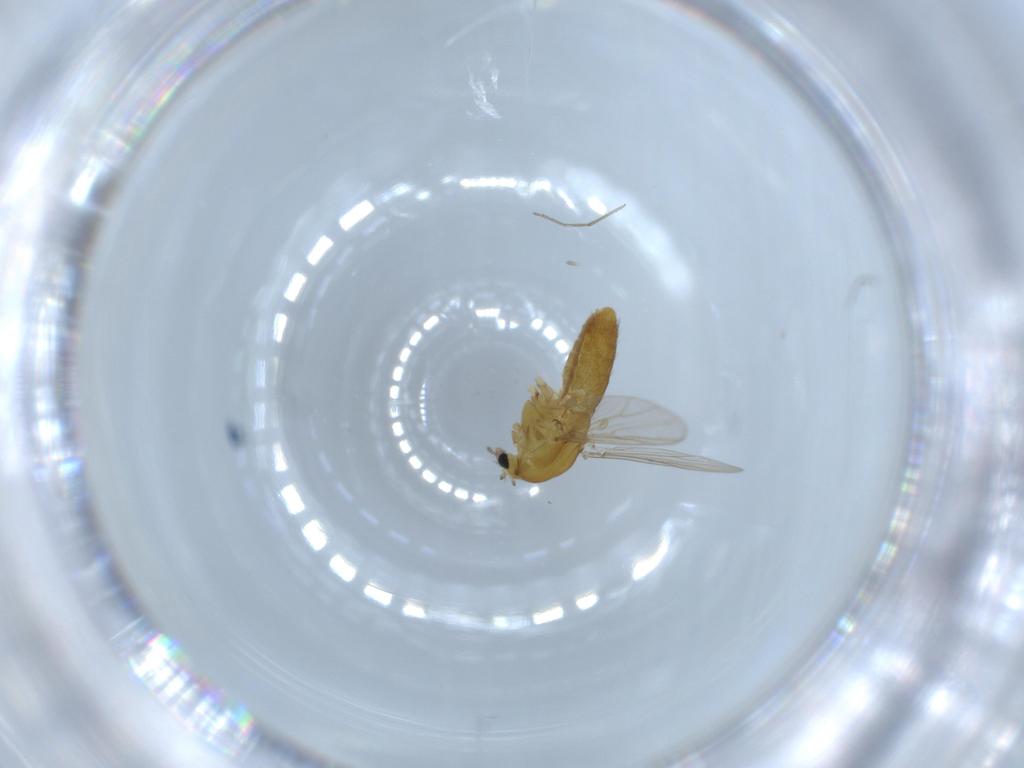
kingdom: Animalia
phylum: Arthropoda
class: Insecta
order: Diptera
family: Chironomidae
